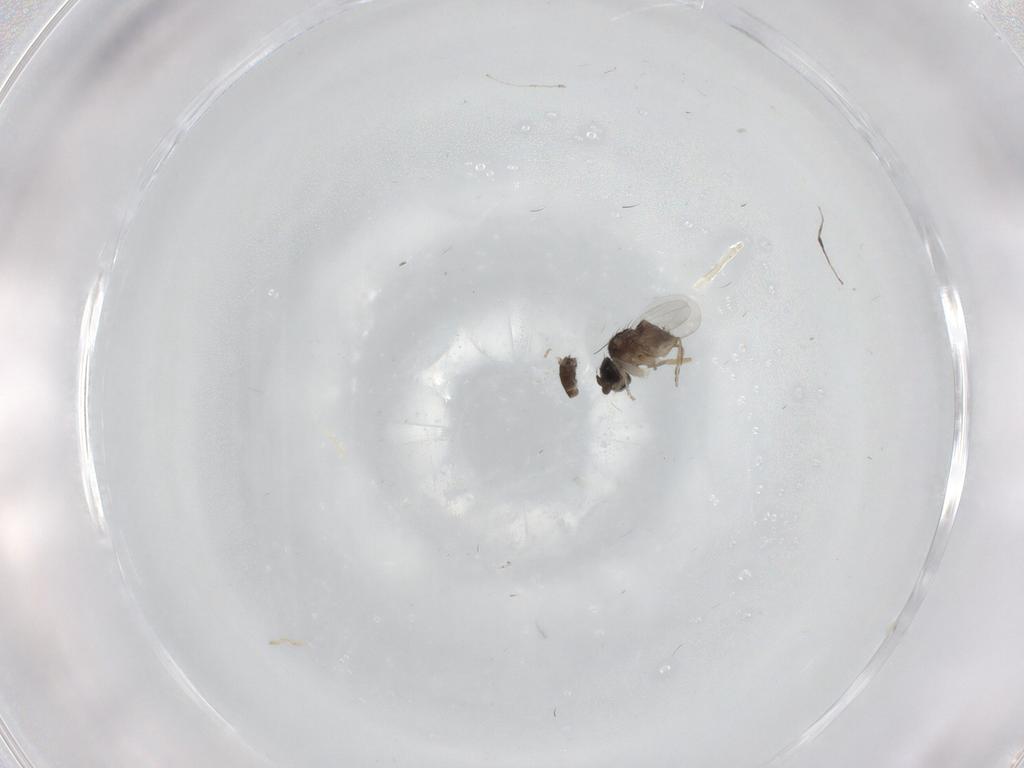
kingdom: Animalia
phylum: Arthropoda
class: Insecta
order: Diptera
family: Phoridae
